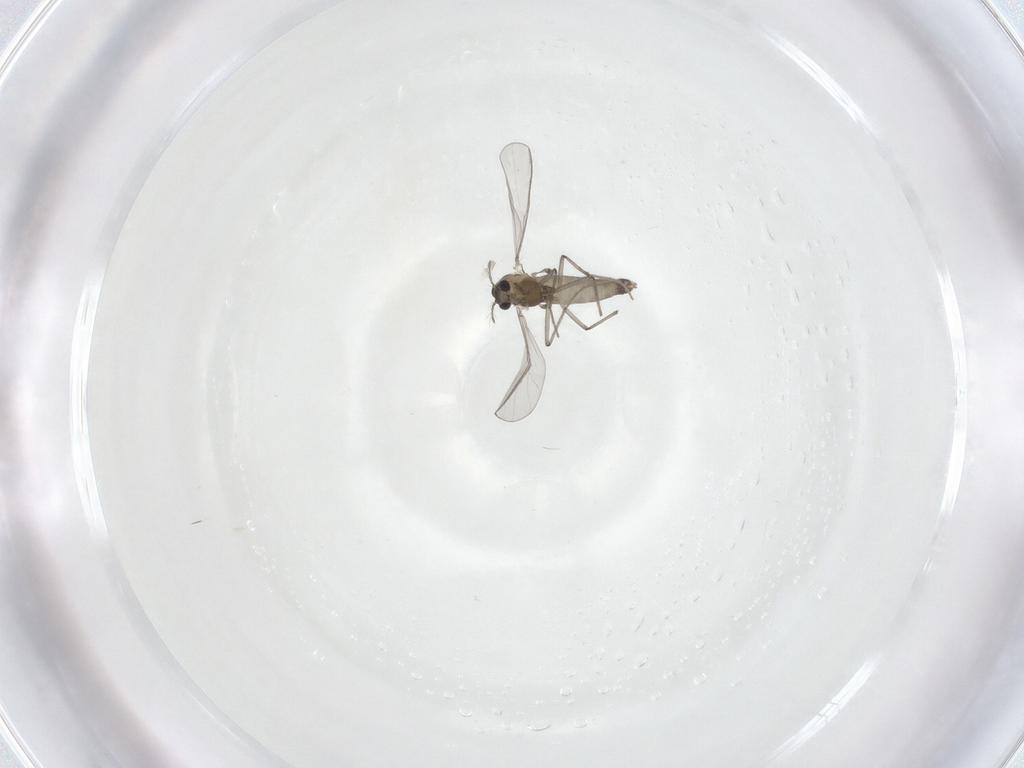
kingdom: Animalia
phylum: Arthropoda
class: Insecta
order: Diptera
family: Chironomidae
